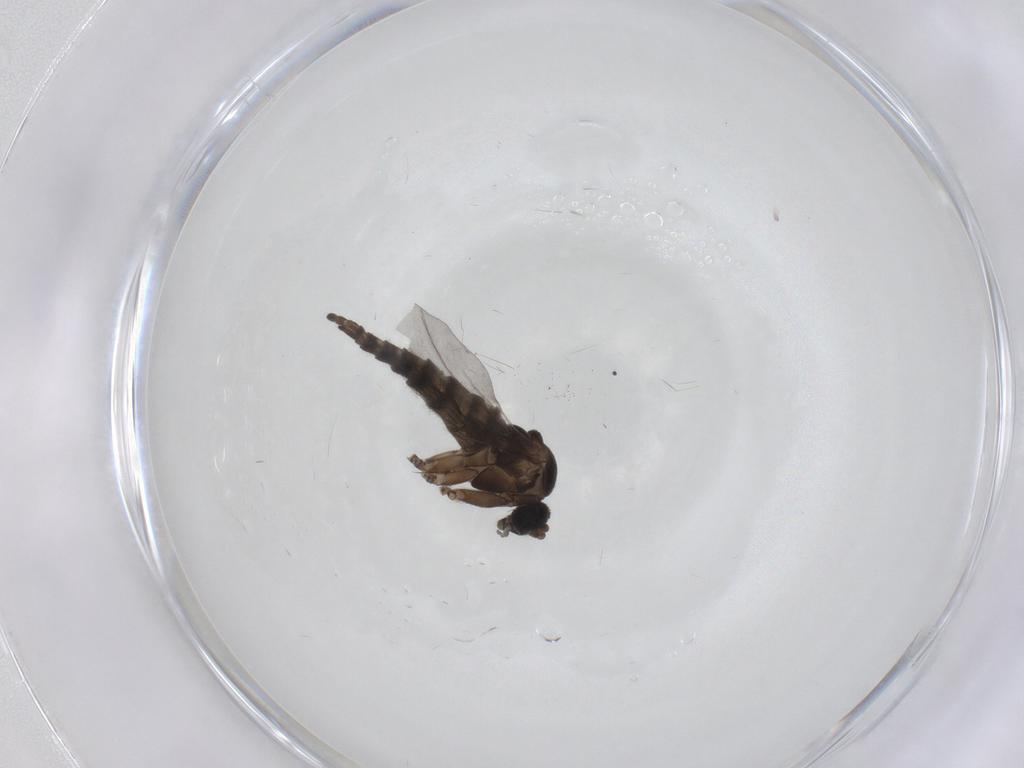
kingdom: Animalia
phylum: Arthropoda
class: Insecta
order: Diptera
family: Sciaridae
